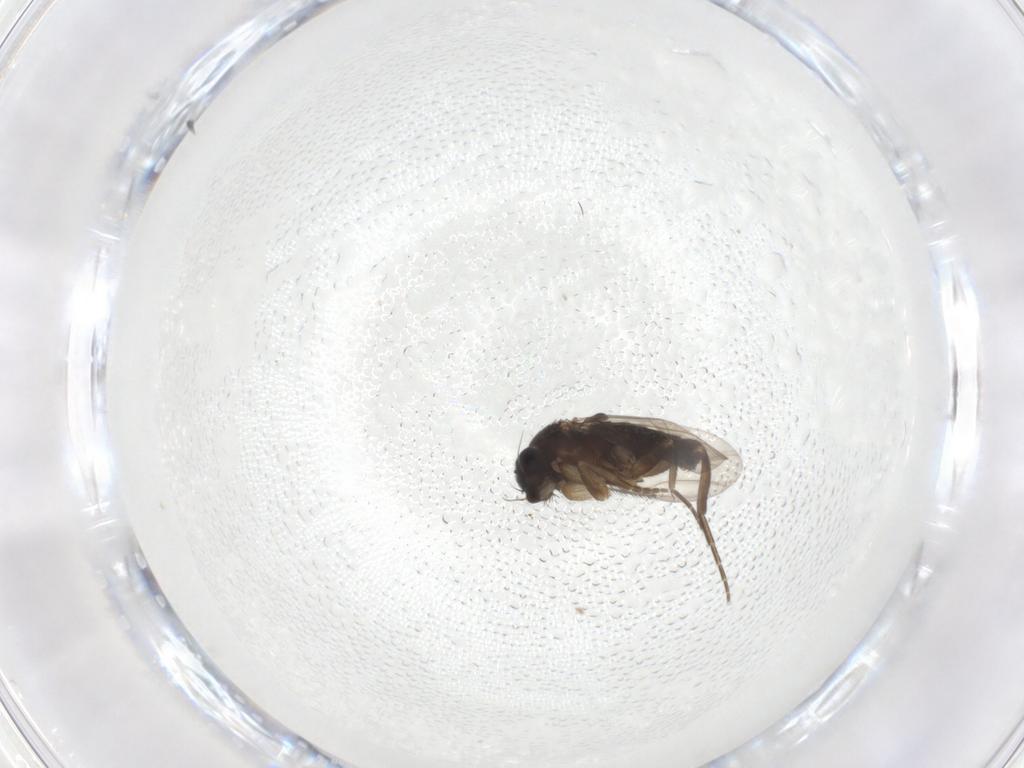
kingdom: Animalia
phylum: Arthropoda
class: Insecta
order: Diptera
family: Phoridae
